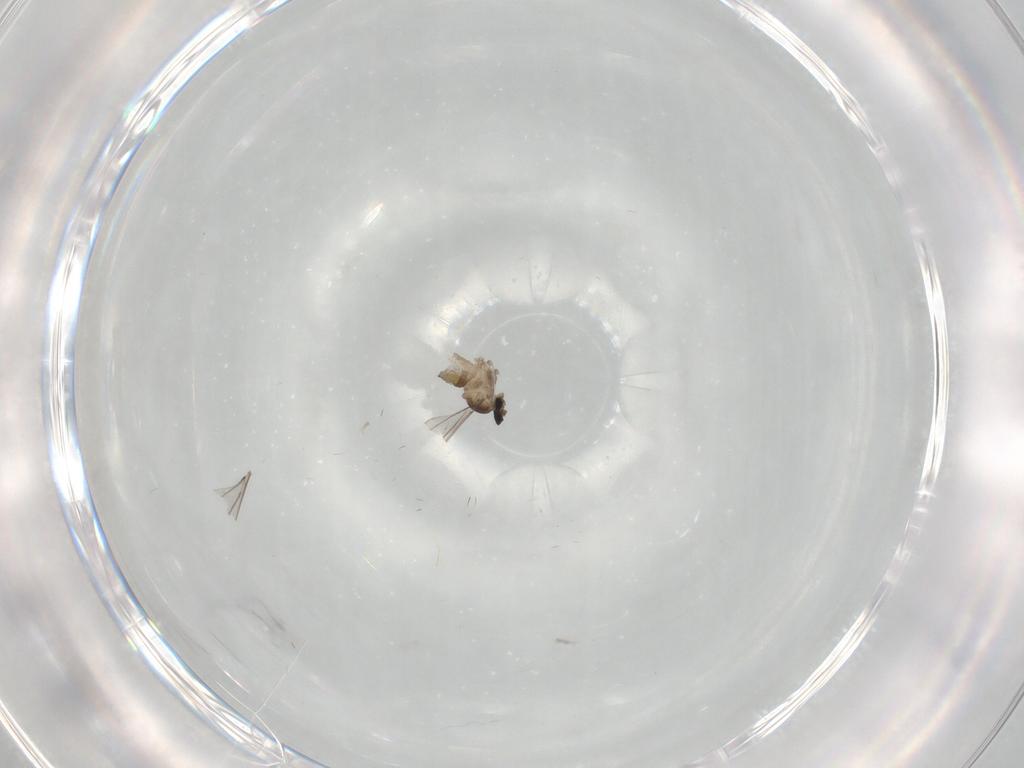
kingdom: Animalia
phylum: Arthropoda
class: Insecta
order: Diptera
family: Cecidomyiidae
